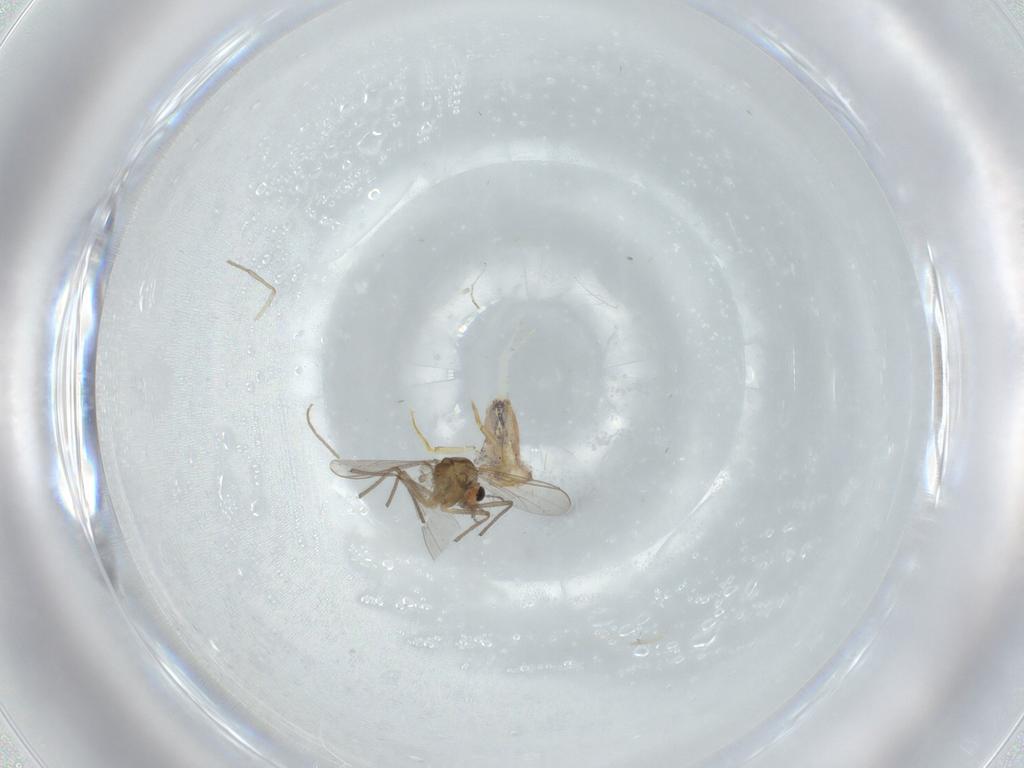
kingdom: Animalia
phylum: Arthropoda
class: Insecta
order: Diptera
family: Cecidomyiidae
